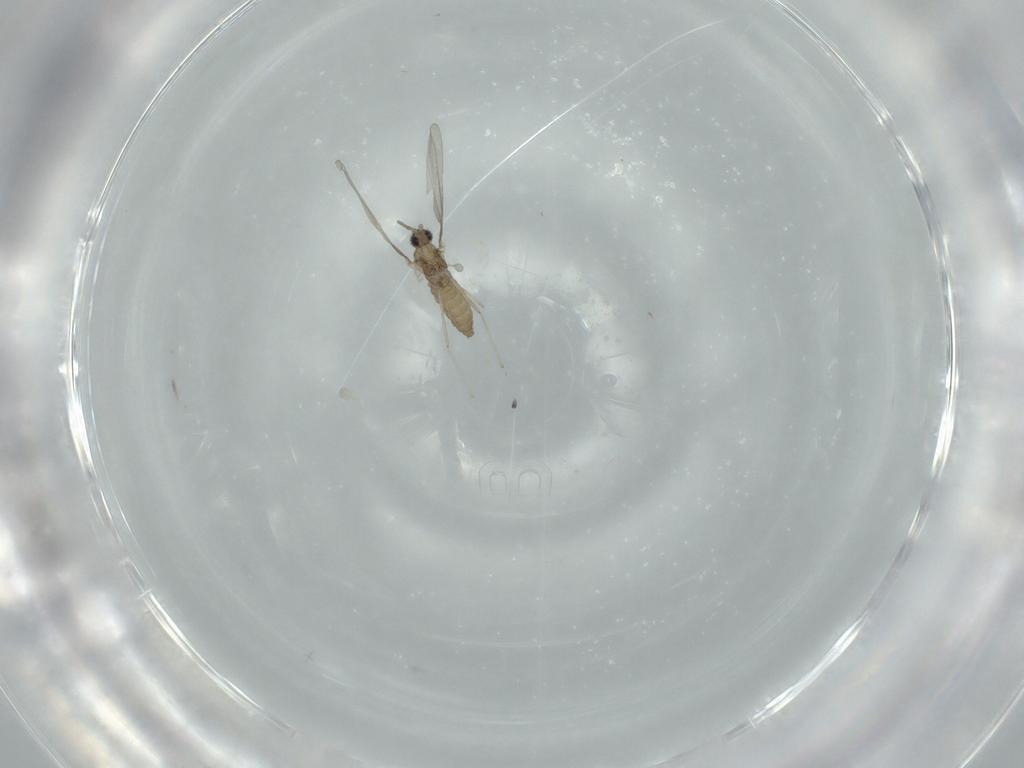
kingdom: Animalia
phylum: Arthropoda
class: Insecta
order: Diptera
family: Cecidomyiidae
